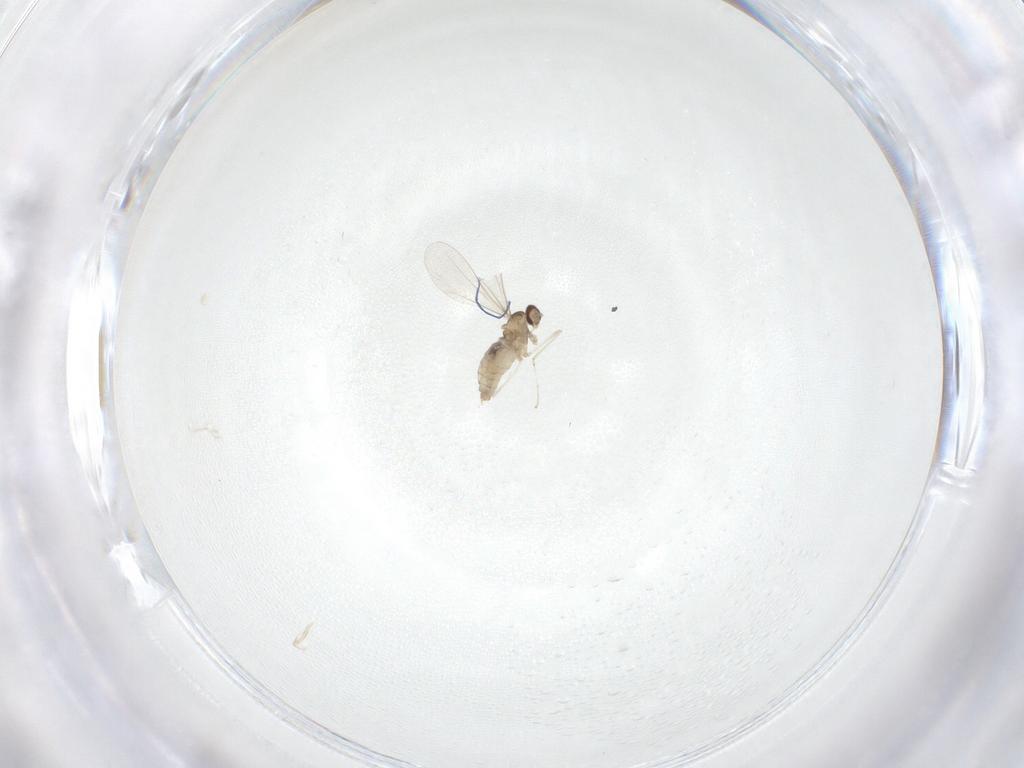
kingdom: Animalia
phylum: Arthropoda
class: Insecta
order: Diptera
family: Cecidomyiidae
